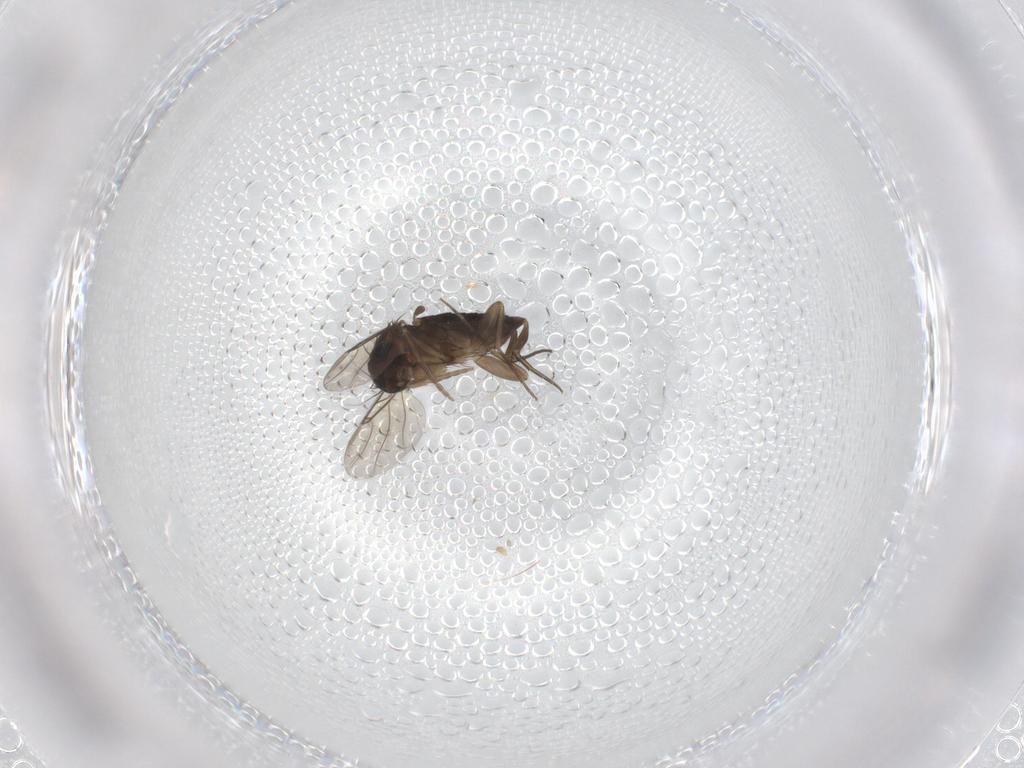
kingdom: Animalia
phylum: Arthropoda
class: Insecta
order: Diptera
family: Phoridae
